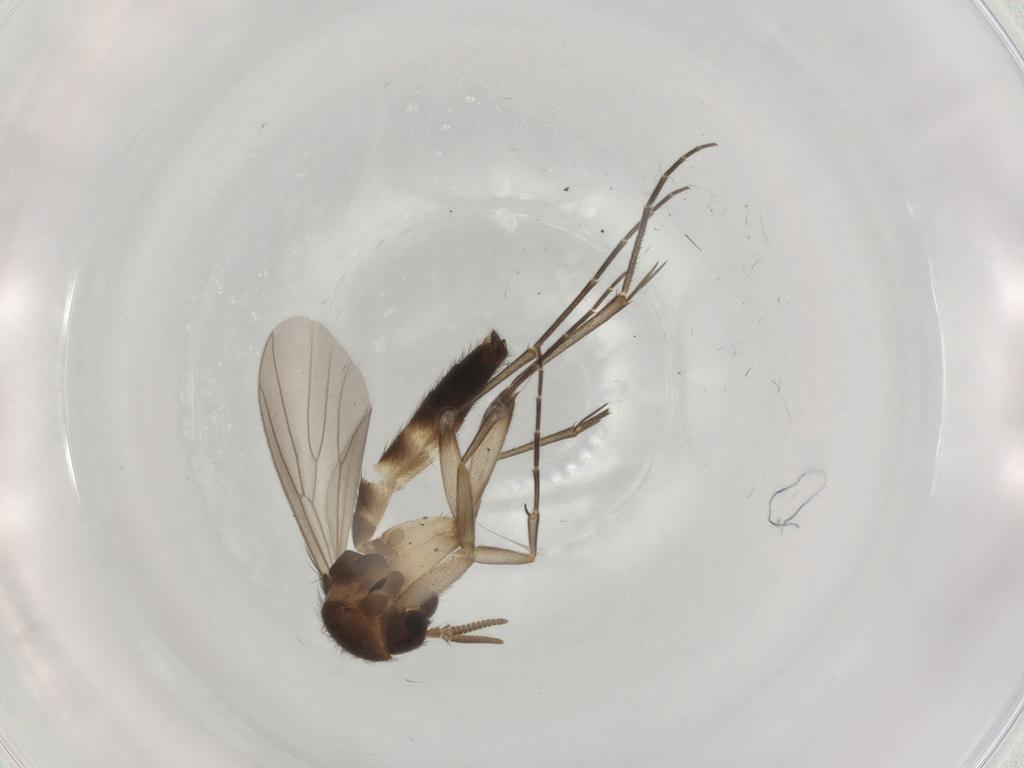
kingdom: Animalia
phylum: Arthropoda
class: Insecta
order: Diptera
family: Mycetophilidae
